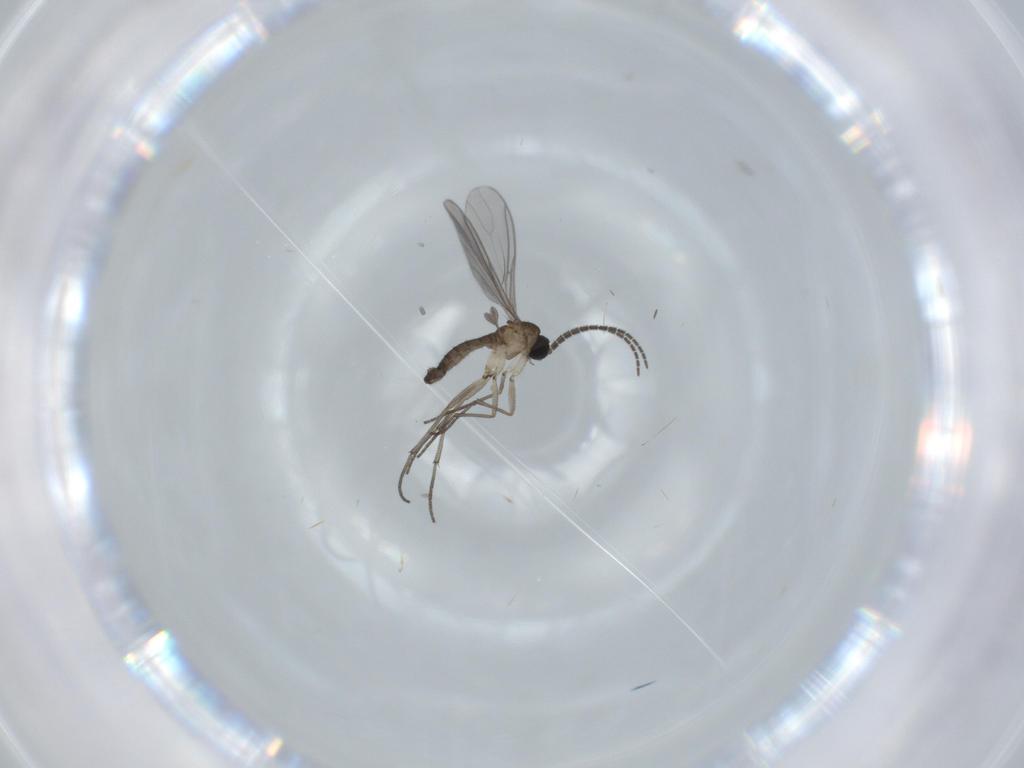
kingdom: Animalia
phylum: Arthropoda
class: Insecta
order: Diptera
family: Sciaridae
